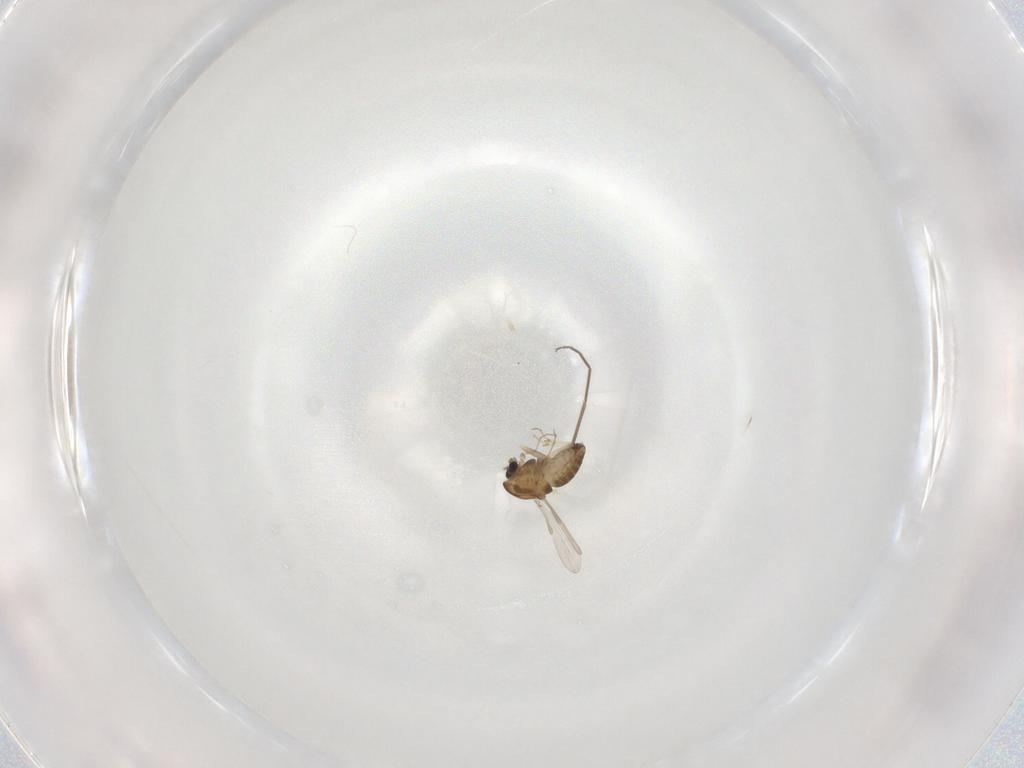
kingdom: Animalia
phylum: Arthropoda
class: Insecta
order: Diptera
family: Chironomidae
